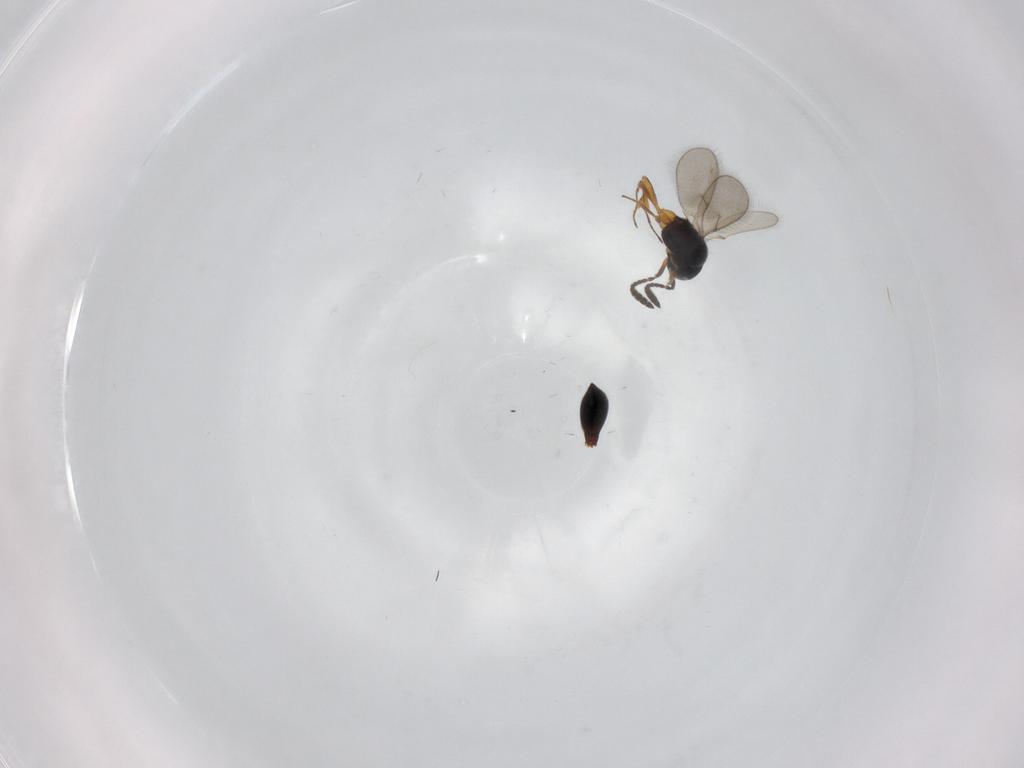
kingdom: Animalia
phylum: Arthropoda
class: Insecta
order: Hymenoptera
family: Scelionidae
